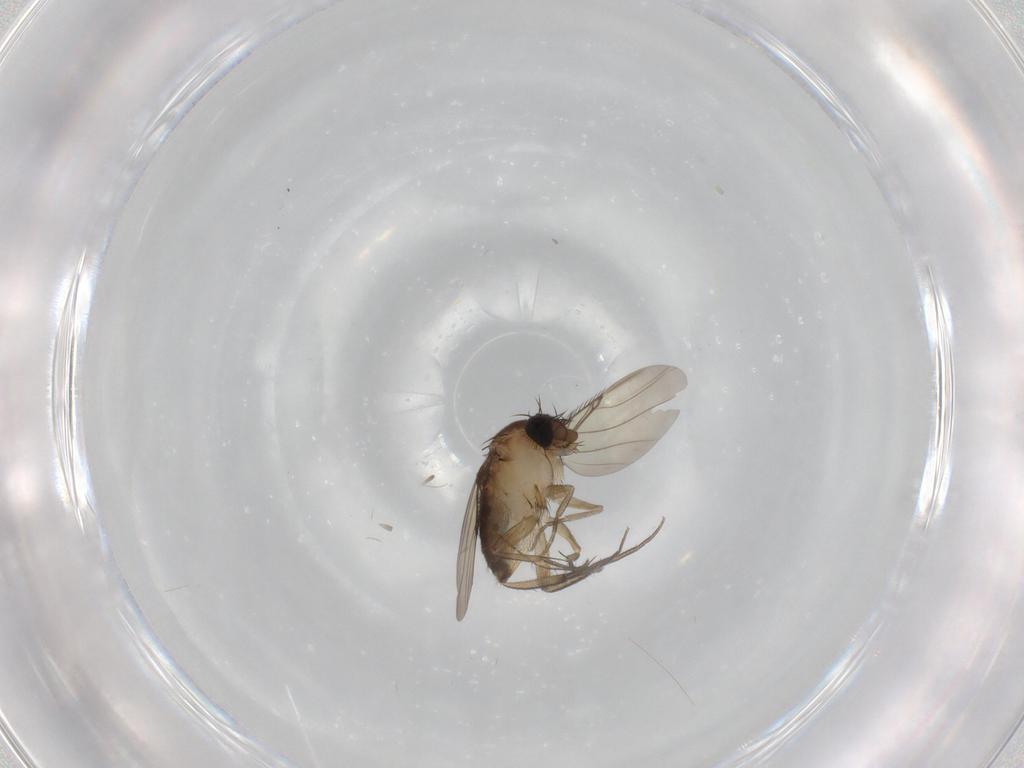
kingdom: Animalia
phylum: Arthropoda
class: Insecta
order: Diptera
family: Phoridae
